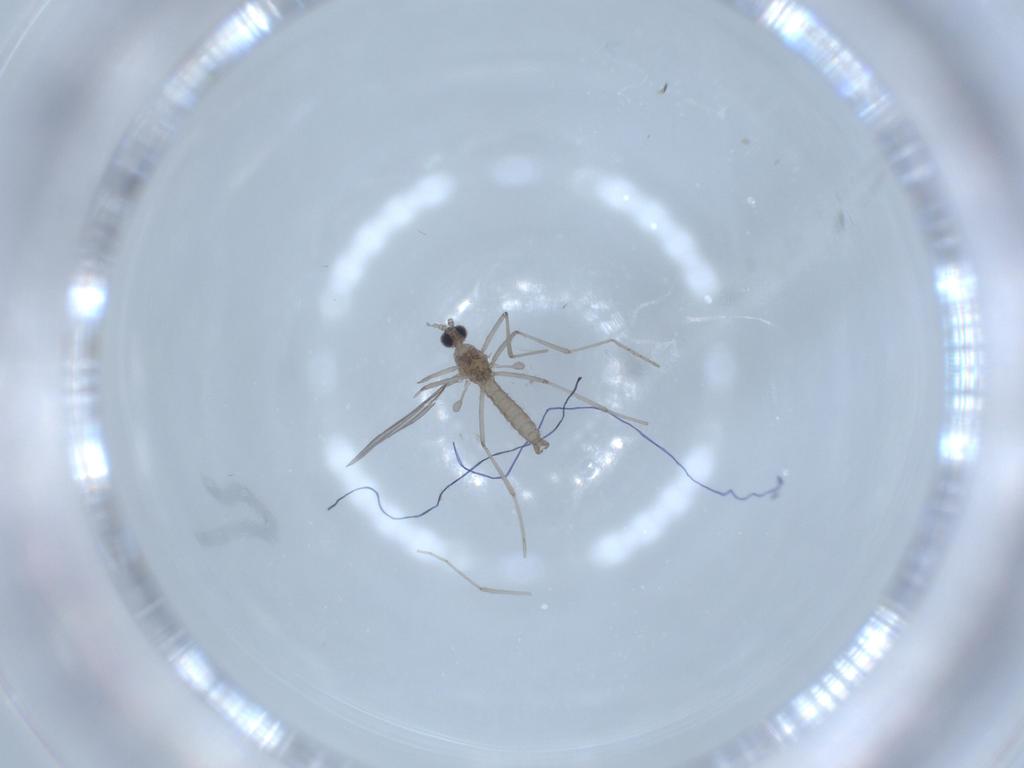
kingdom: Animalia
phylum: Arthropoda
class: Insecta
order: Diptera
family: Cecidomyiidae
